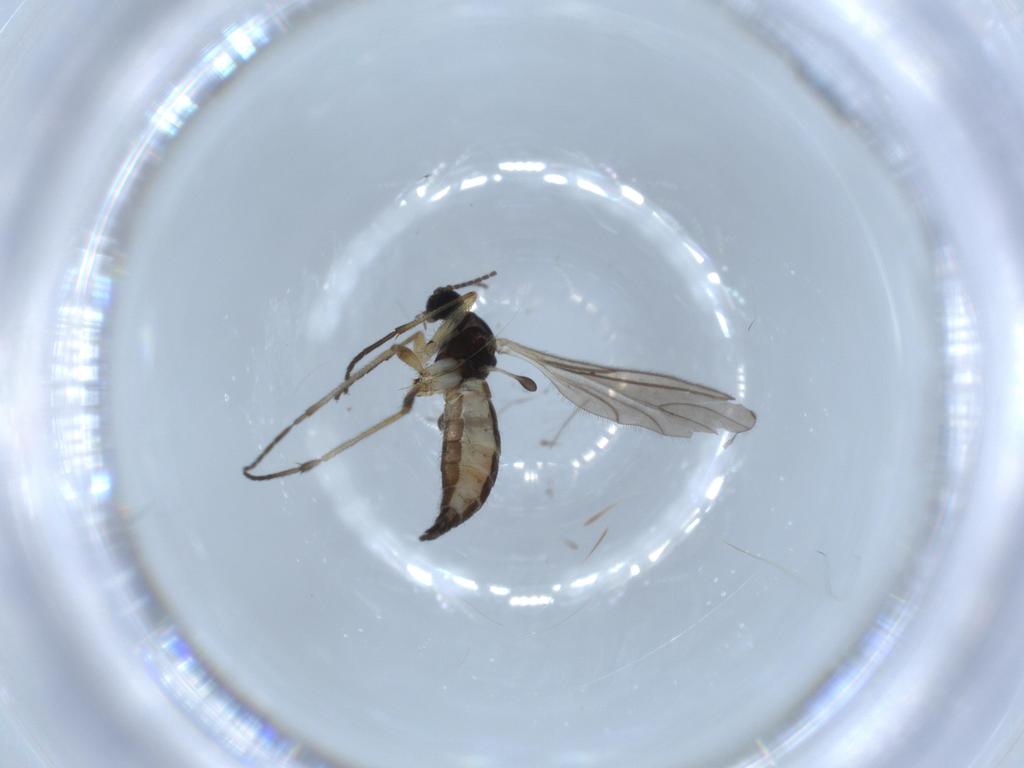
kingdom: Animalia
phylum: Arthropoda
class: Insecta
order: Diptera
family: Sciaridae
